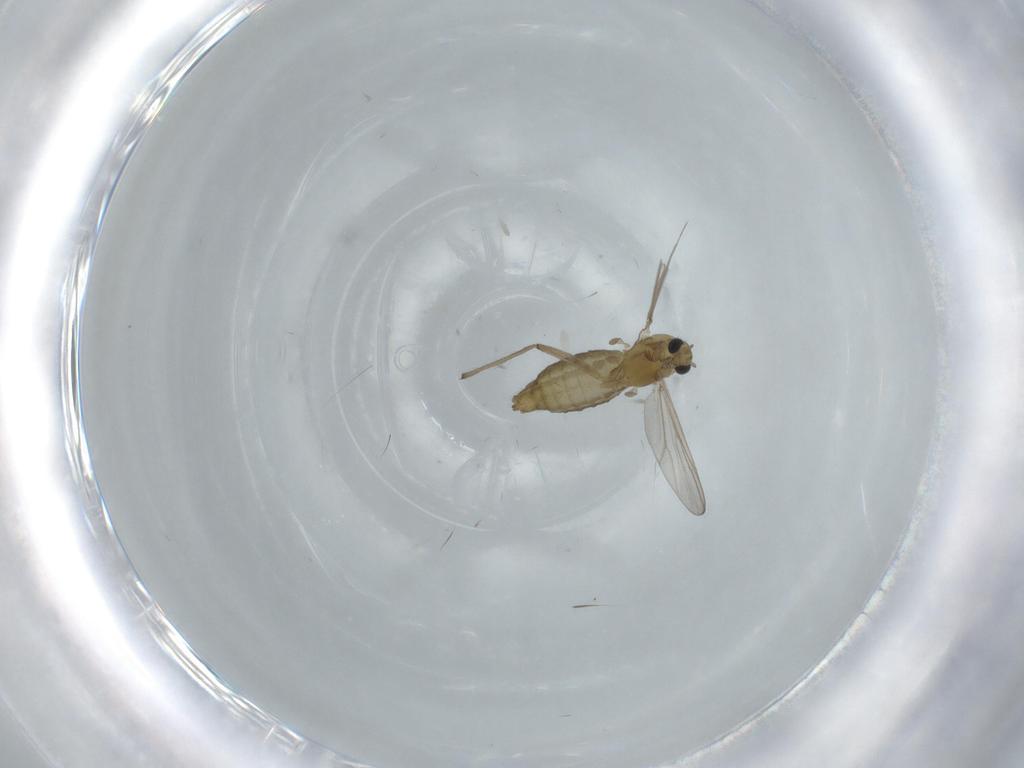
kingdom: Animalia
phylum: Arthropoda
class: Insecta
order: Diptera
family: Chironomidae
